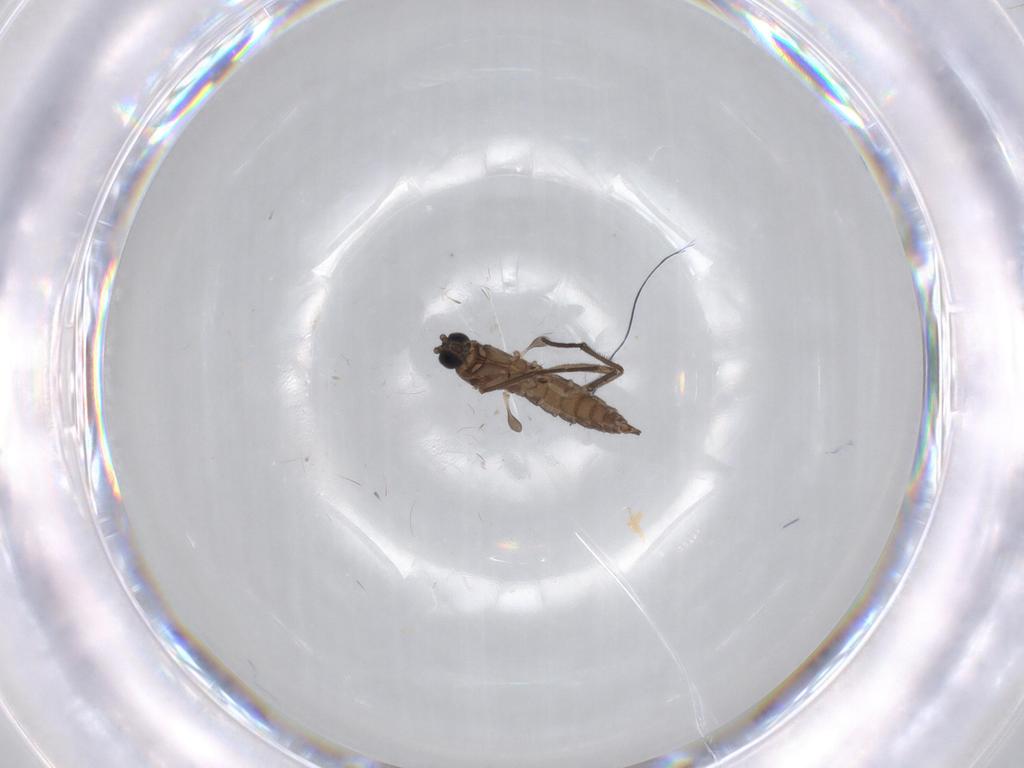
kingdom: Animalia
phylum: Arthropoda
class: Insecta
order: Diptera
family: Sciaridae
